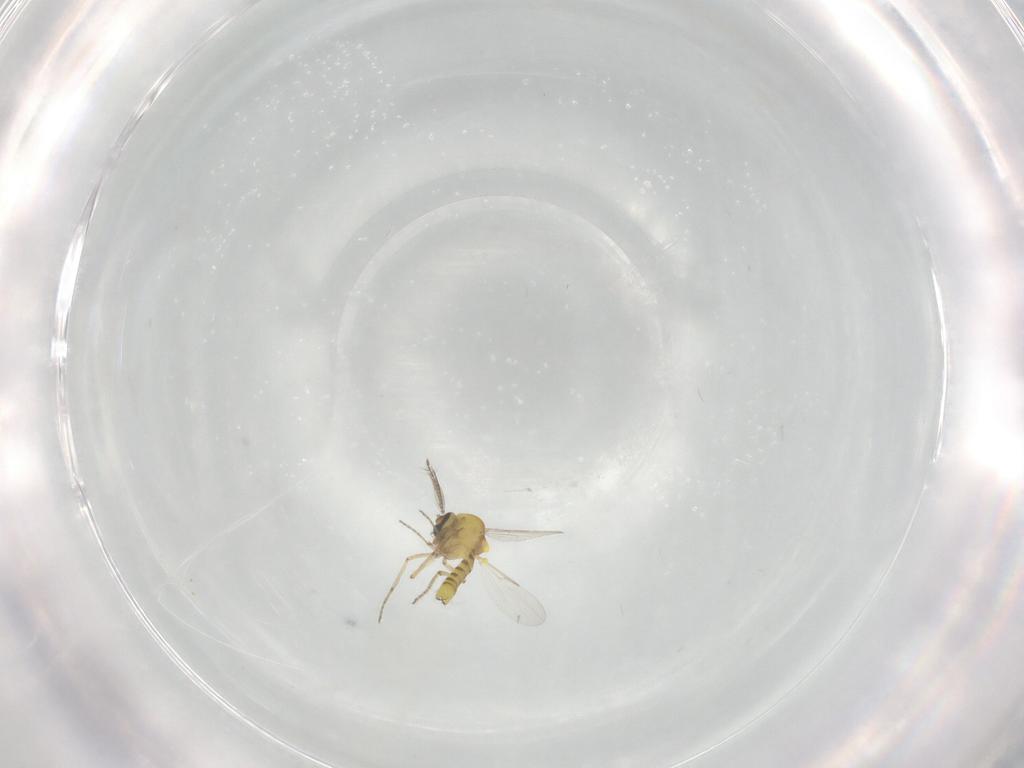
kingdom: Animalia
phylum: Arthropoda
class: Insecta
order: Diptera
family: Ceratopogonidae
